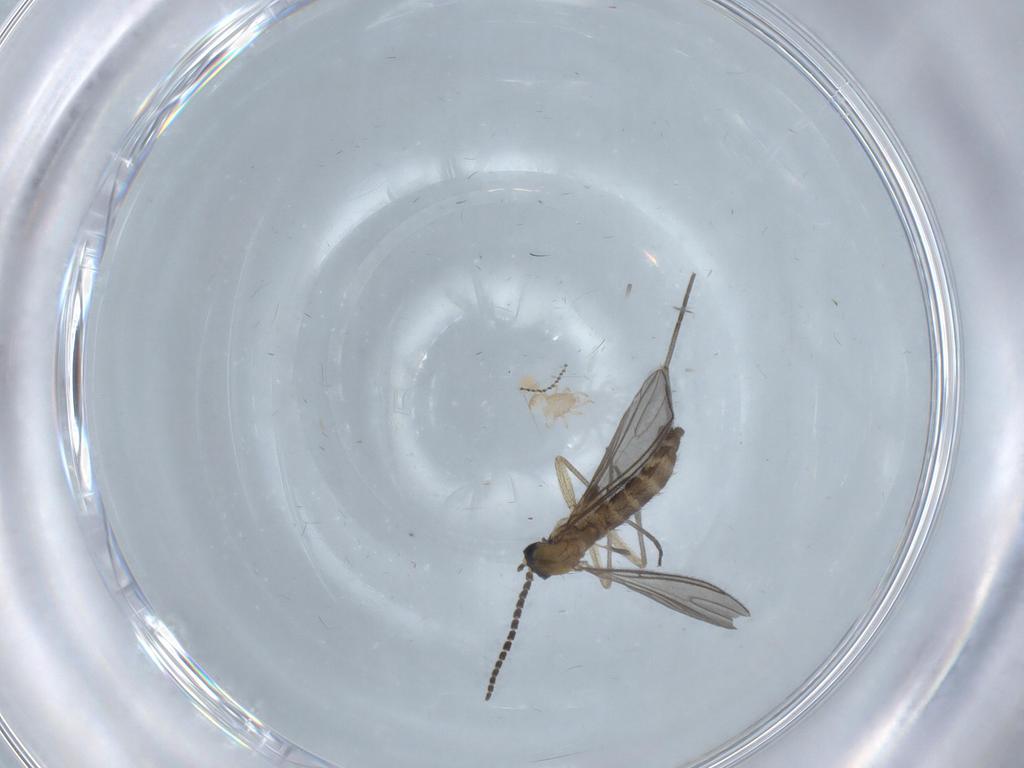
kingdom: Animalia
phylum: Arthropoda
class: Insecta
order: Diptera
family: Sciaridae
